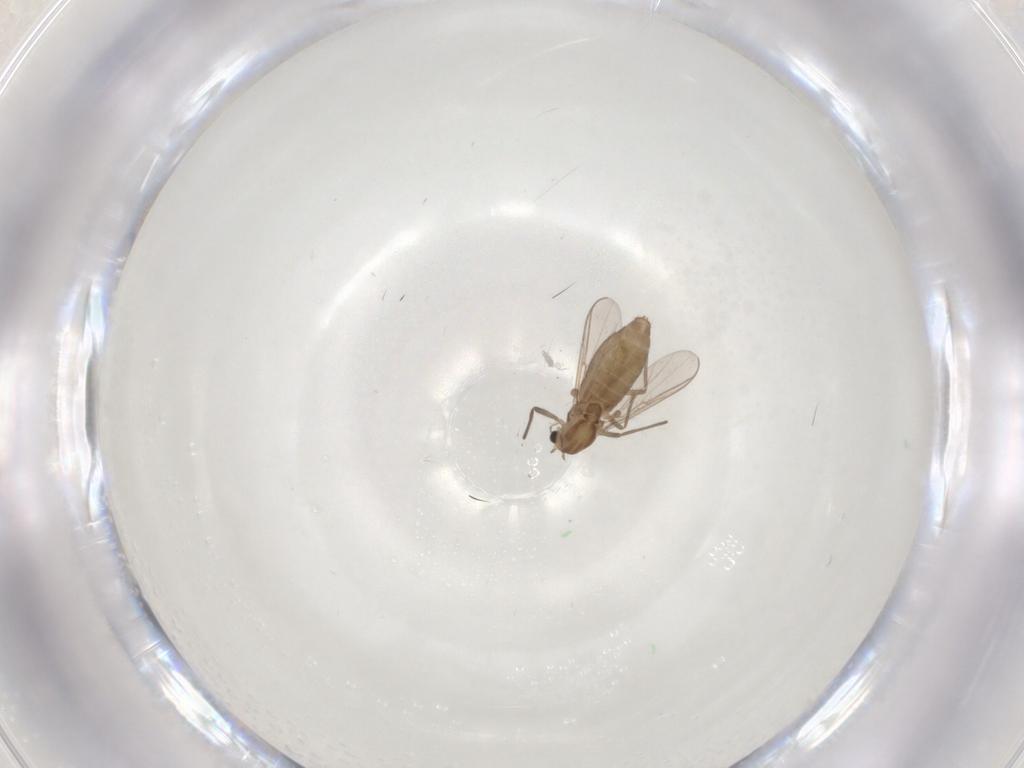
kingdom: Animalia
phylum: Arthropoda
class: Insecta
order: Diptera
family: Chironomidae
